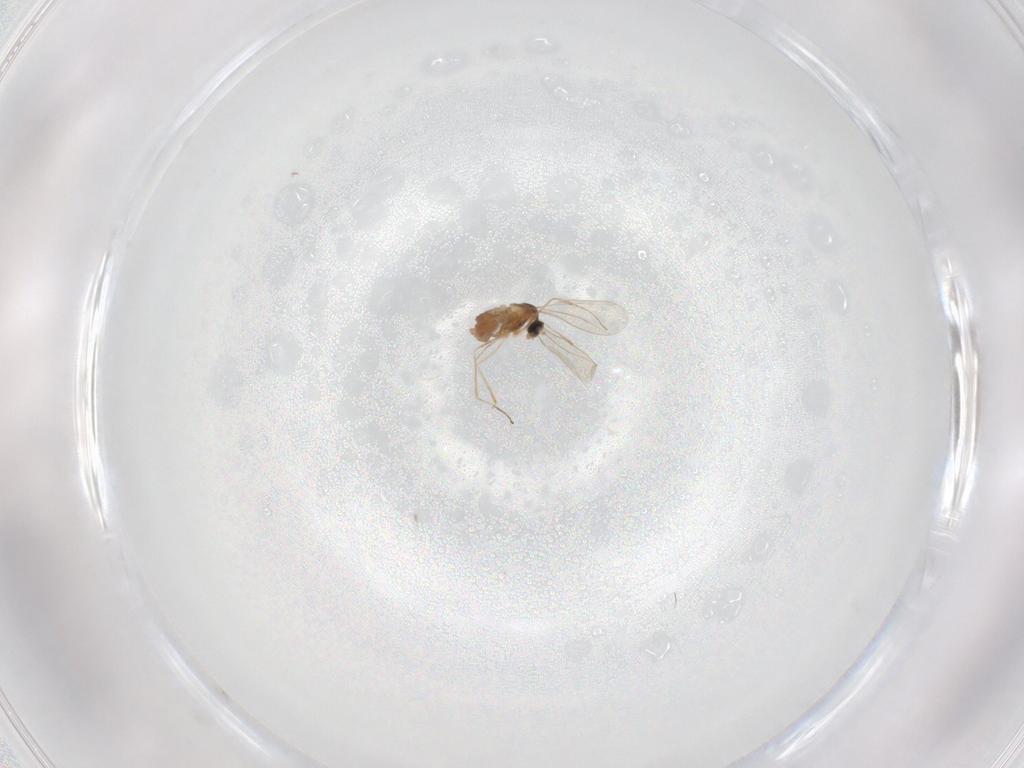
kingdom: Animalia
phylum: Arthropoda
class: Insecta
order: Diptera
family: Cecidomyiidae
